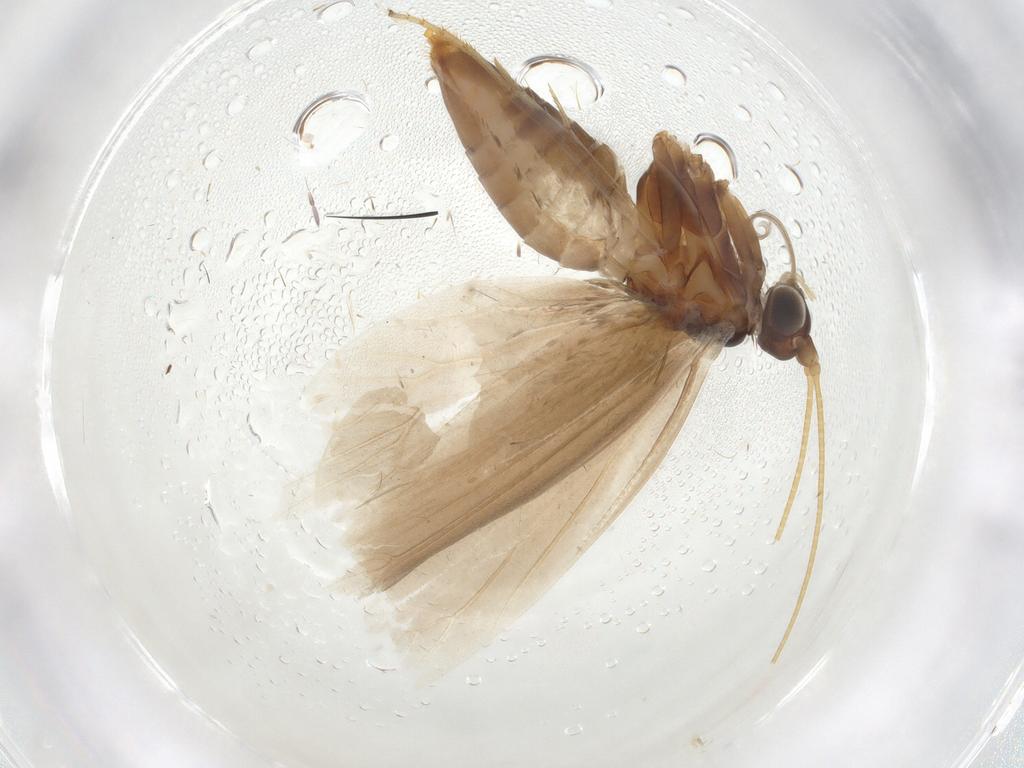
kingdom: Animalia
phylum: Arthropoda
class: Insecta
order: Lepidoptera
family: Adelidae
